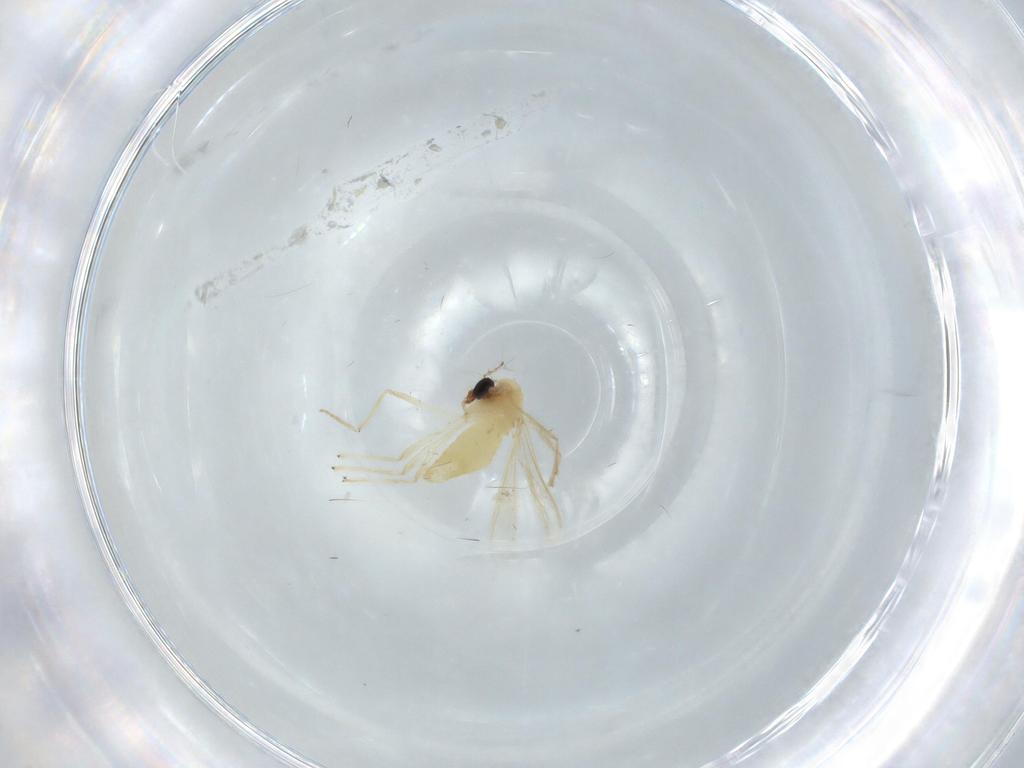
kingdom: Animalia
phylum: Arthropoda
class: Insecta
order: Diptera
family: Chironomidae
